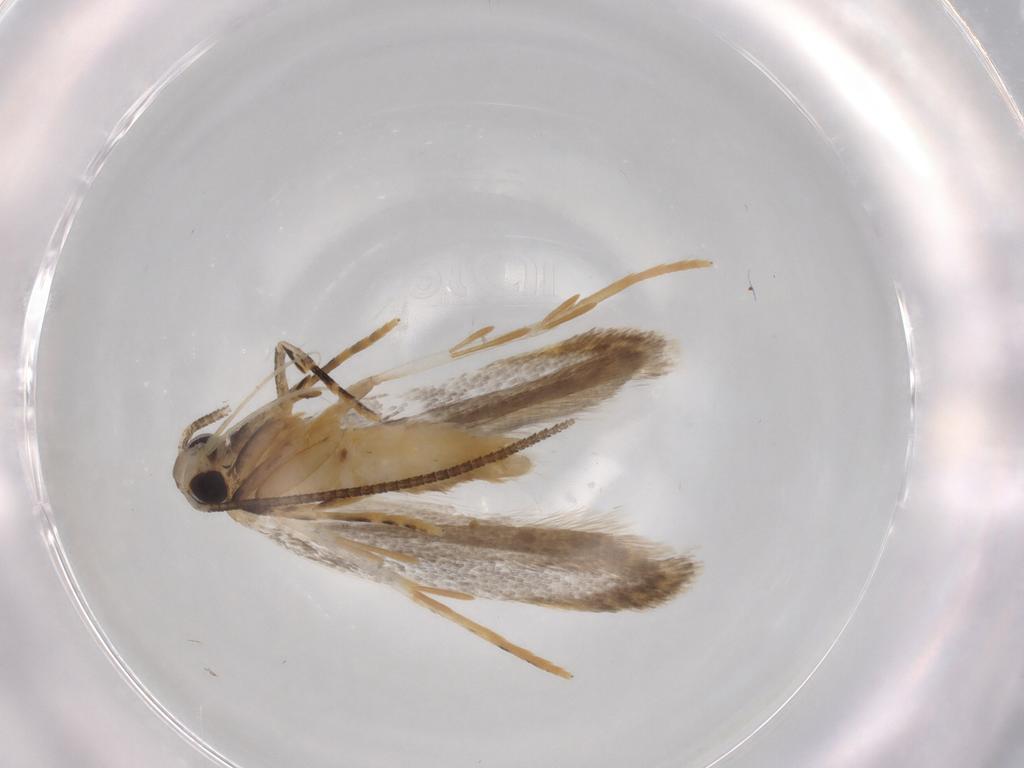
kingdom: Animalia
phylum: Arthropoda
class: Insecta
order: Lepidoptera
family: Autostichidae
